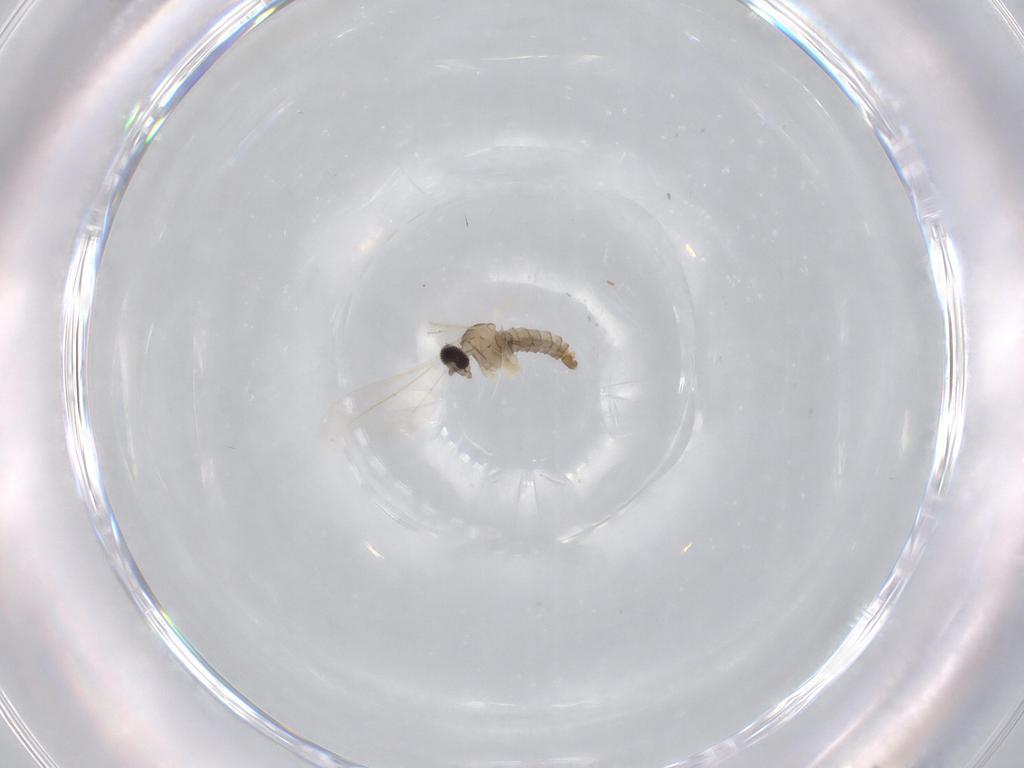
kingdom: Animalia
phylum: Arthropoda
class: Insecta
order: Diptera
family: Cecidomyiidae
